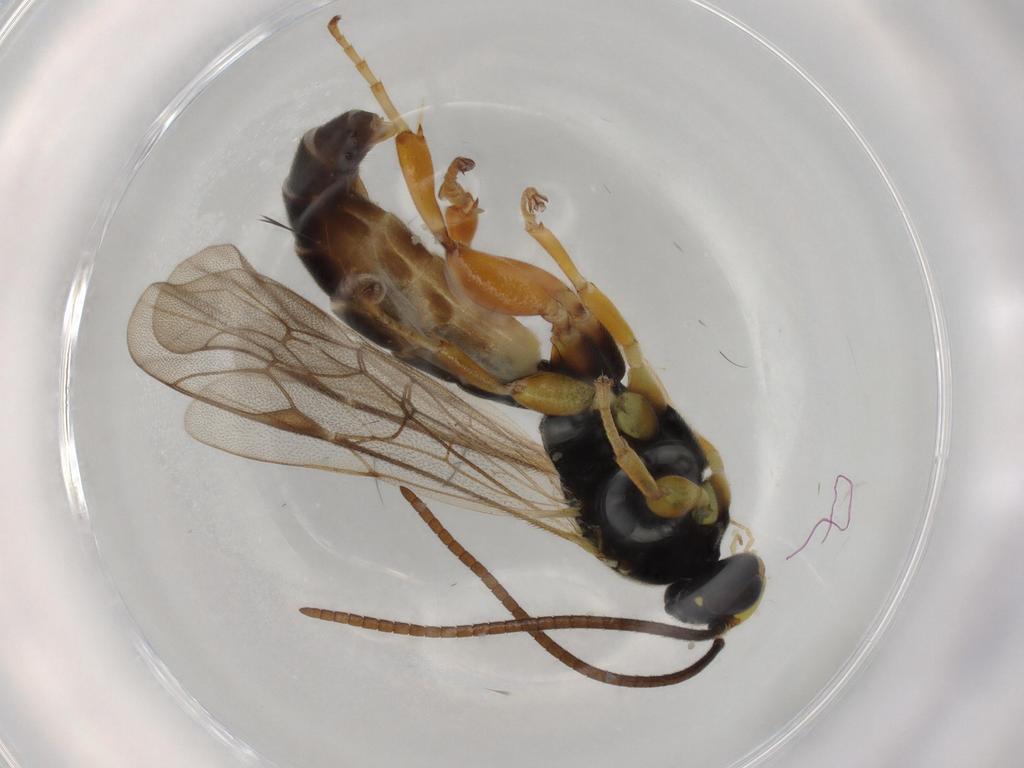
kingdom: Animalia
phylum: Arthropoda
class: Insecta
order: Hymenoptera
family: Ichneumonidae
